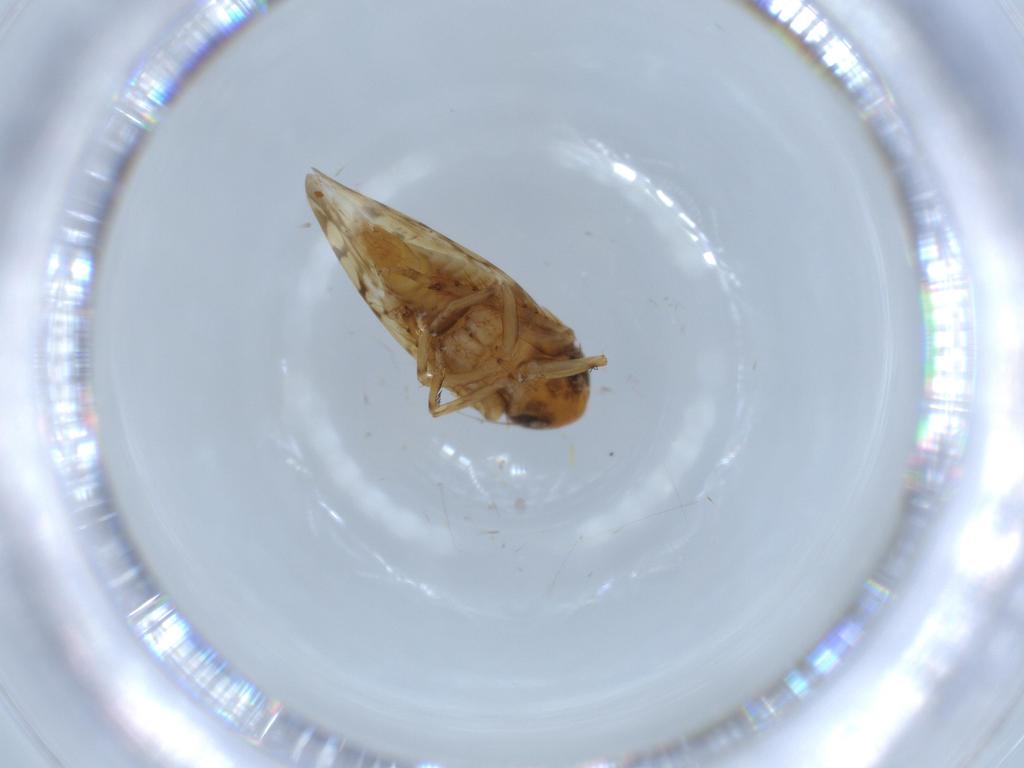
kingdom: Animalia
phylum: Arthropoda
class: Insecta
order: Hemiptera
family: Cicadellidae
